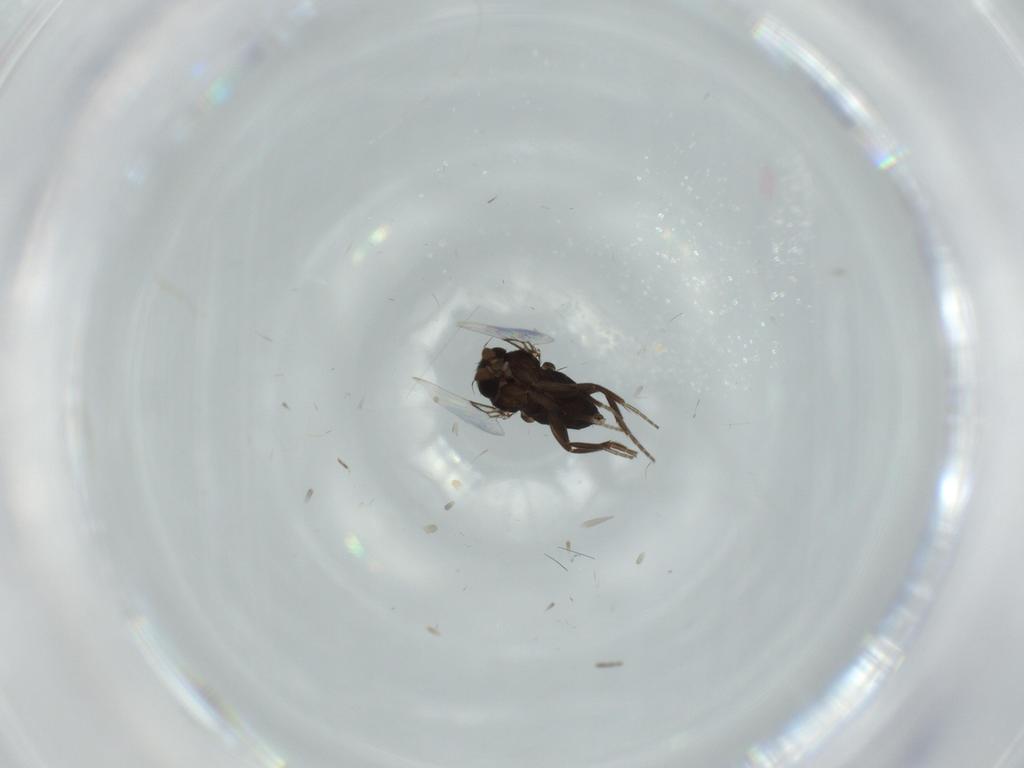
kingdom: Animalia
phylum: Arthropoda
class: Insecta
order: Diptera
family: Phoridae
